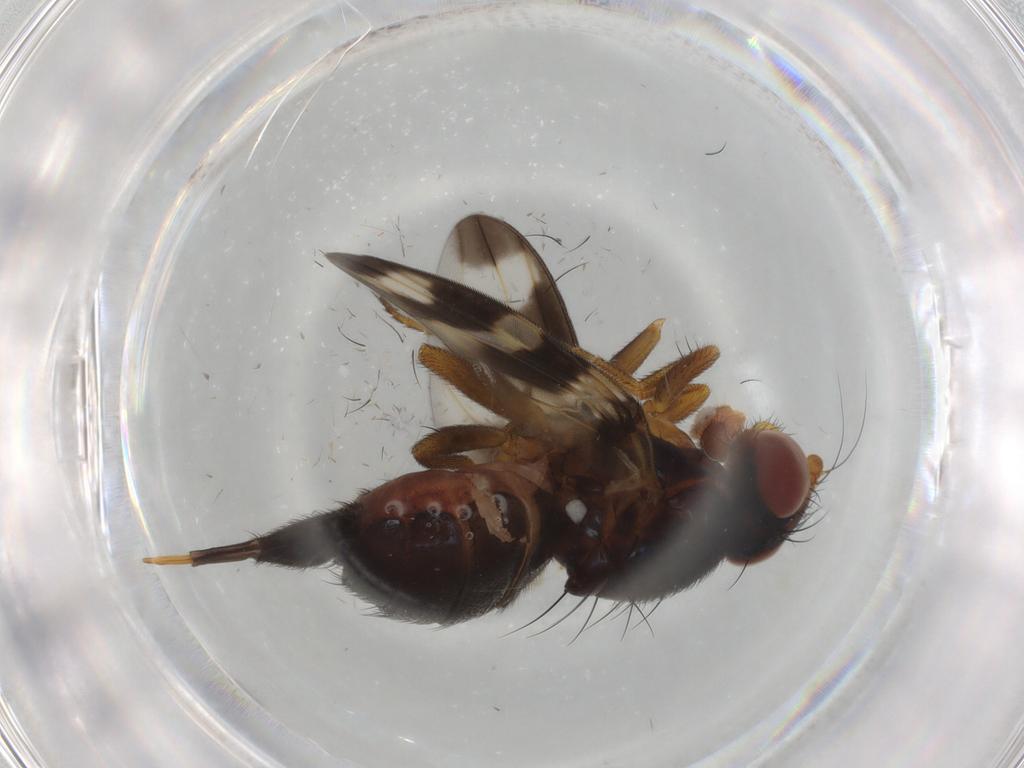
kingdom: Animalia
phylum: Arthropoda
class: Insecta
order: Diptera
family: Ulidiidae
